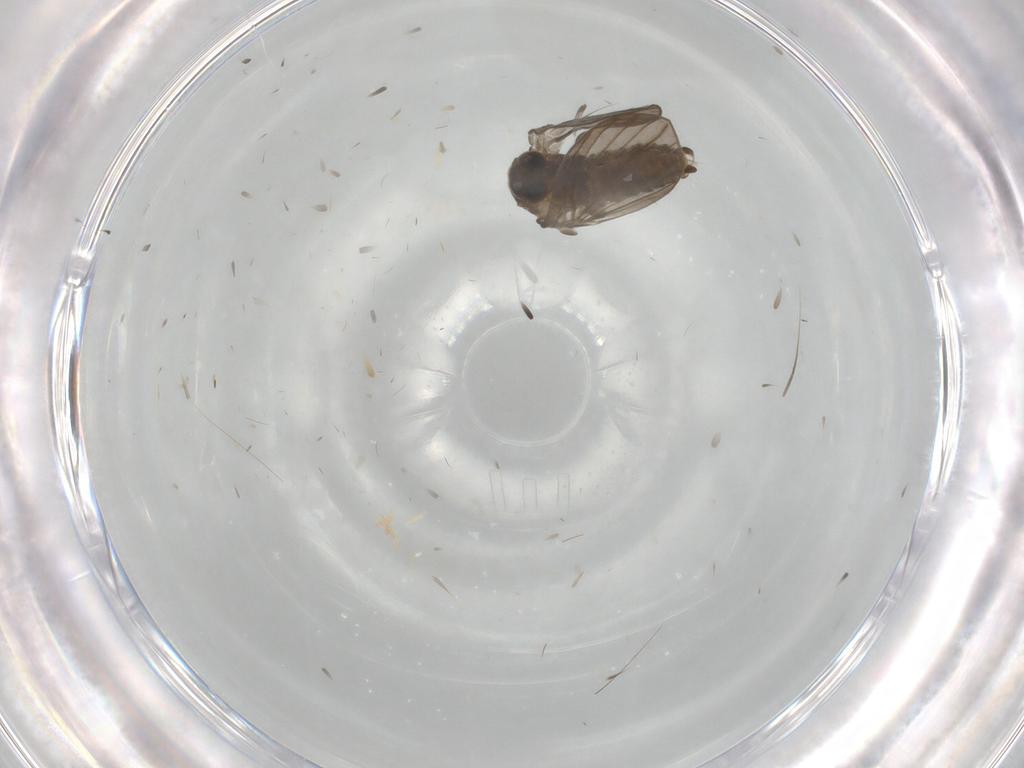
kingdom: Animalia
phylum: Arthropoda
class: Insecta
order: Diptera
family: Psychodidae
